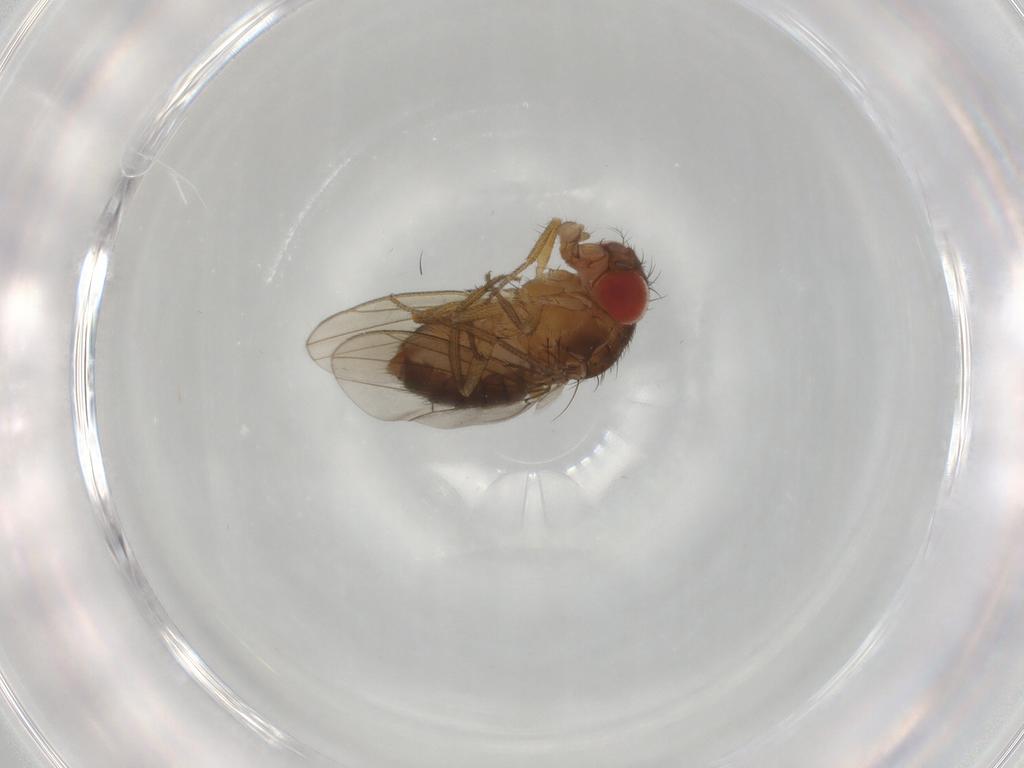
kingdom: Animalia
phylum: Arthropoda
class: Insecta
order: Diptera
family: Drosophilidae
